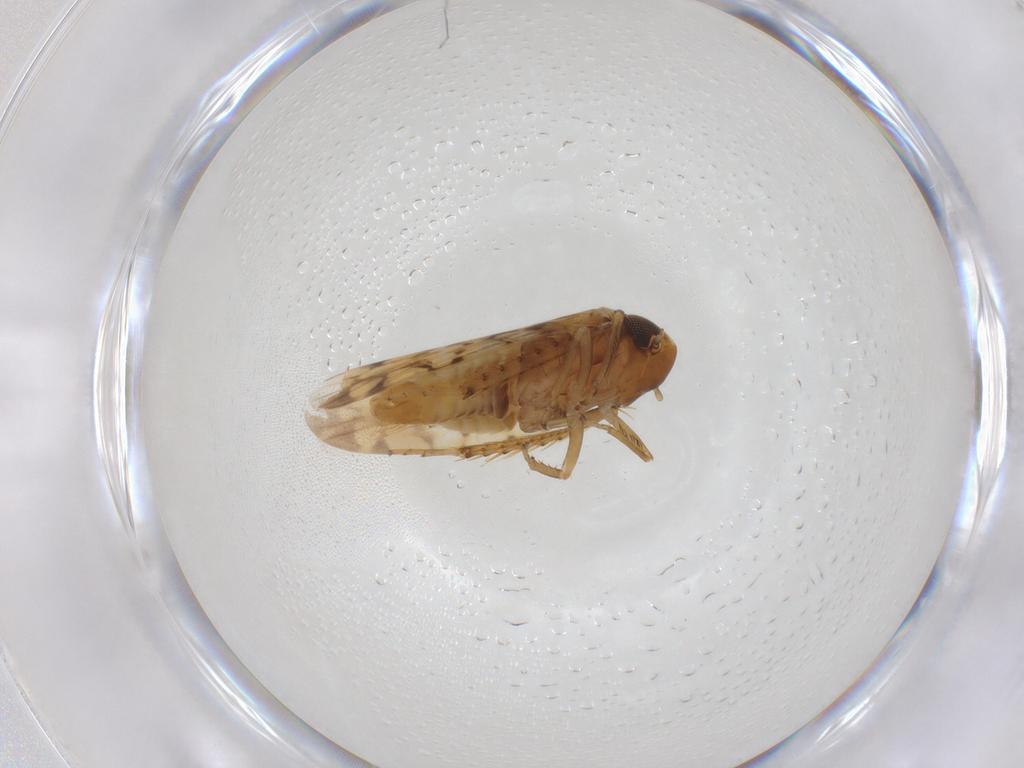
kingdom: Animalia
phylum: Arthropoda
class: Insecta
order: Hemiptera
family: Cicadellidae
